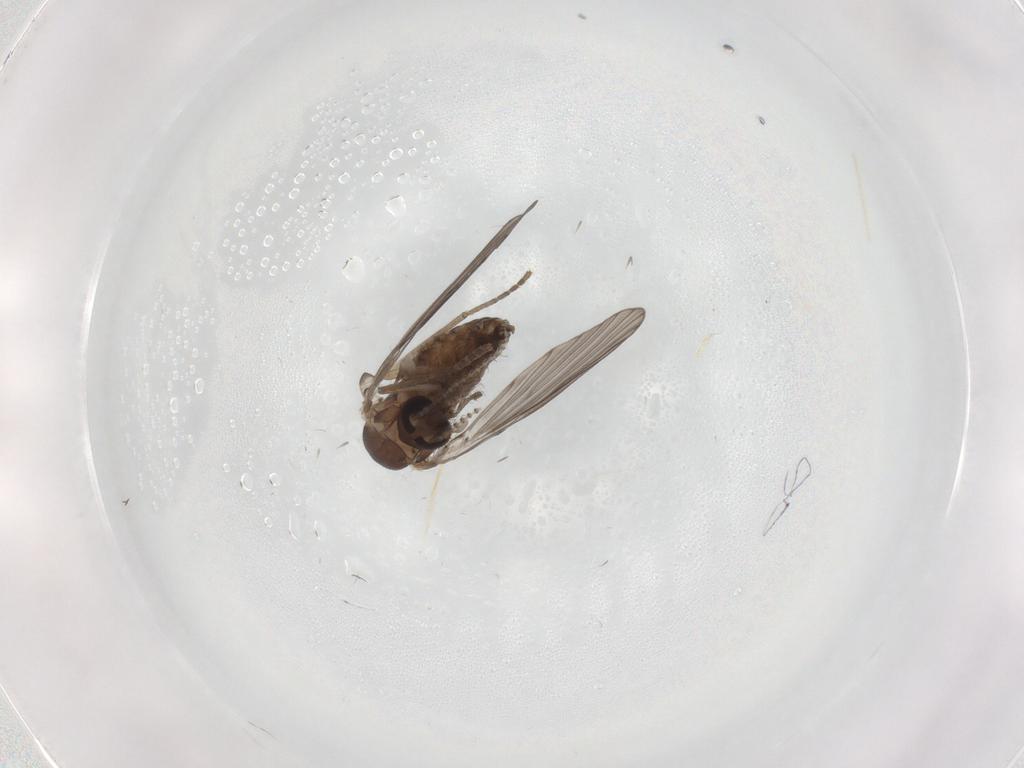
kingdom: Animalia
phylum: Arthropoda
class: Insecta
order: Diptera
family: Psychodidae
